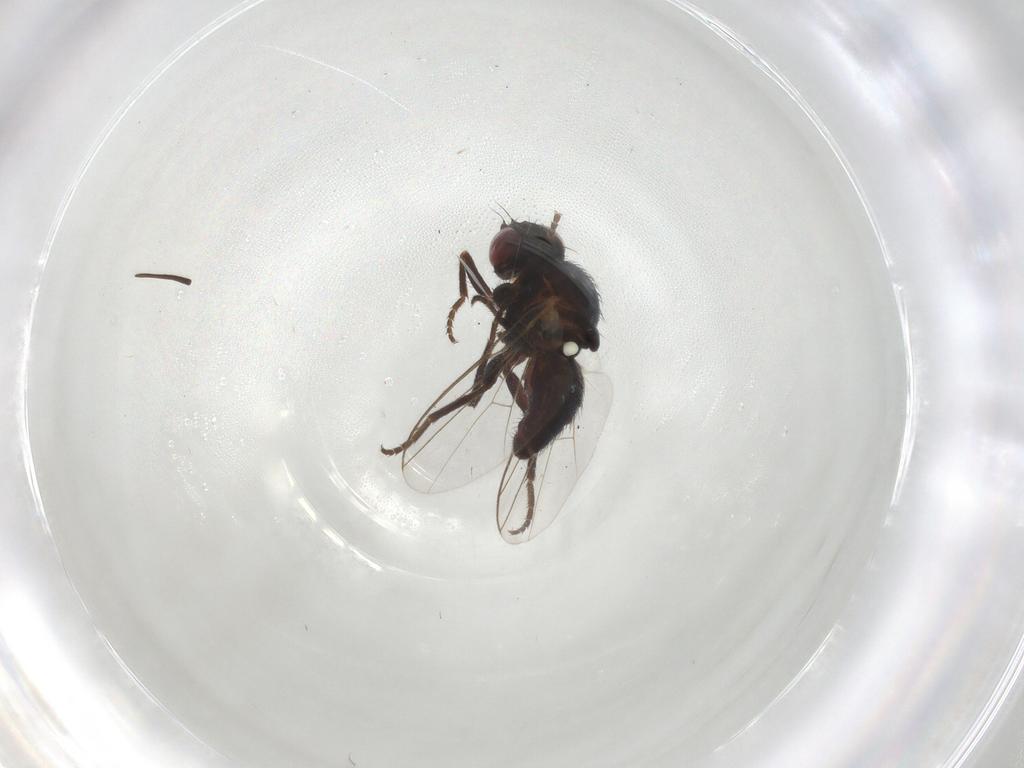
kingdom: Animalia
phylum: Arthropoda
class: Insecta
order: Diptera
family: Agromyzidae
